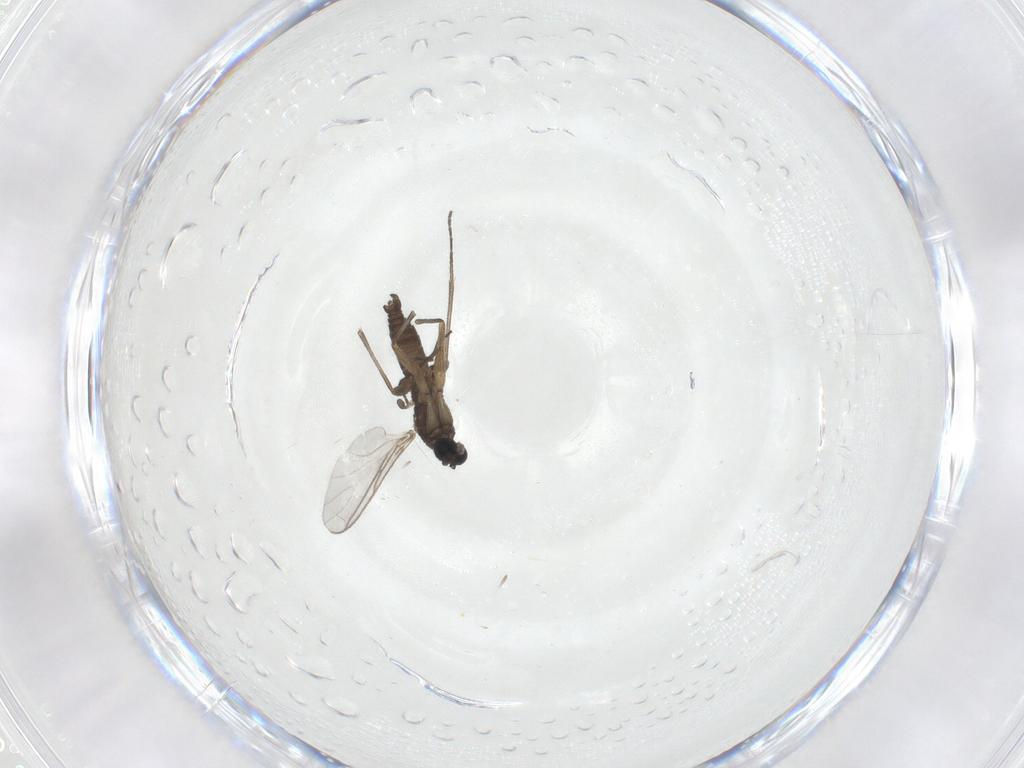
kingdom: Animalia
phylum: Arthropoda
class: Insecta
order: Diptera
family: Sciaridae
